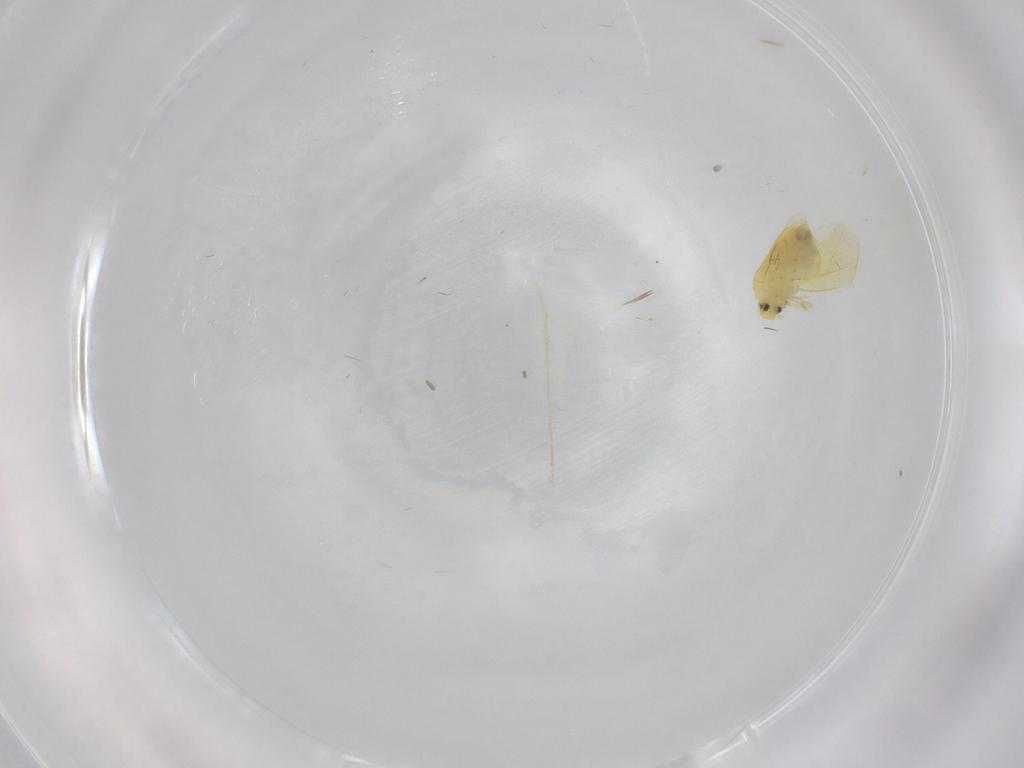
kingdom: Animalia
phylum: Arthropoda
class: Insecta
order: Hemiptera
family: Aleyrodidae
